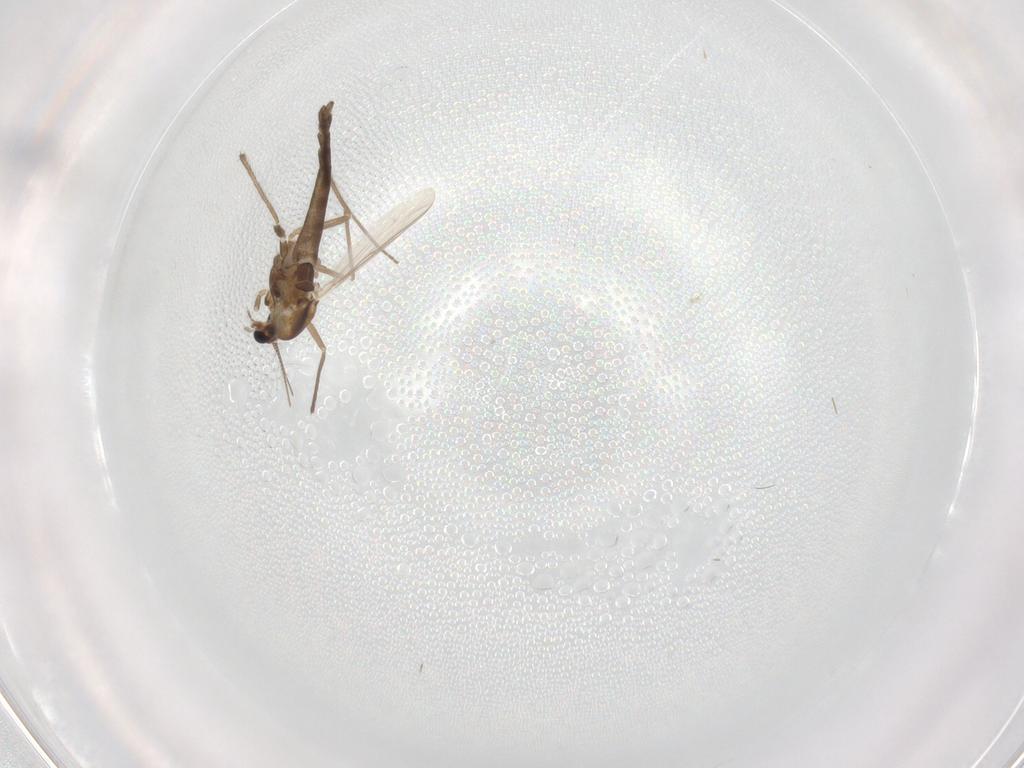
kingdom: Animalia
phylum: Arthropoda
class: Insecta
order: Diptera
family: Chironomidae
